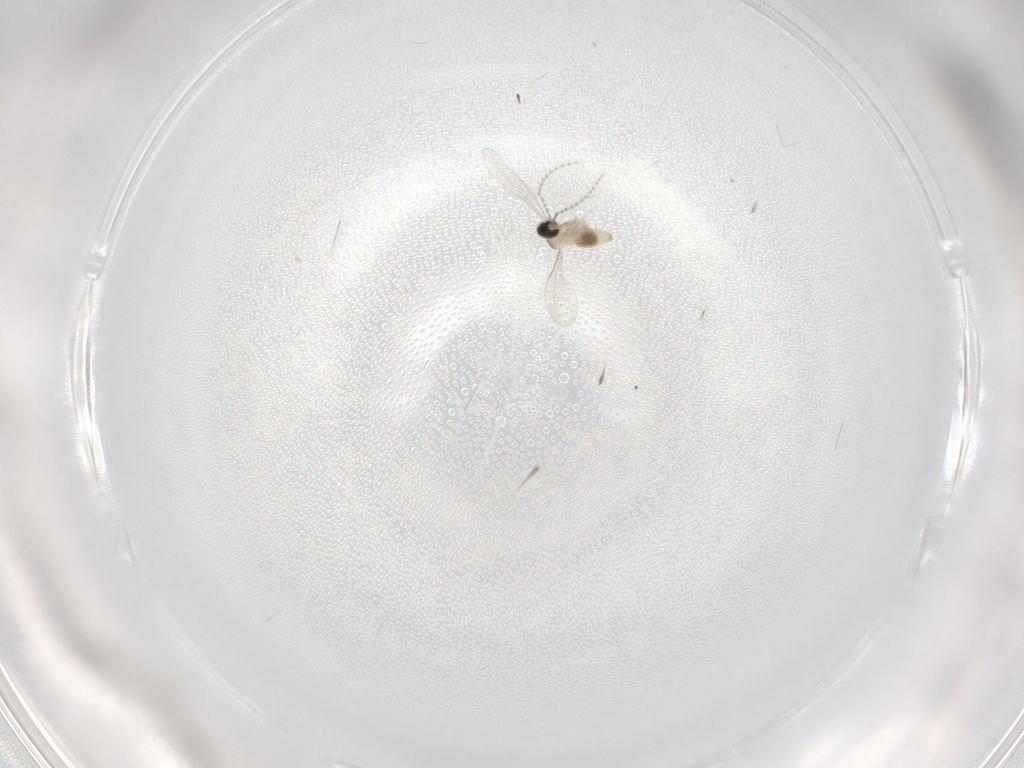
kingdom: Animalia
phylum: Arthropoda
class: Insecta
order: Diptera
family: Cecidomyiidae
